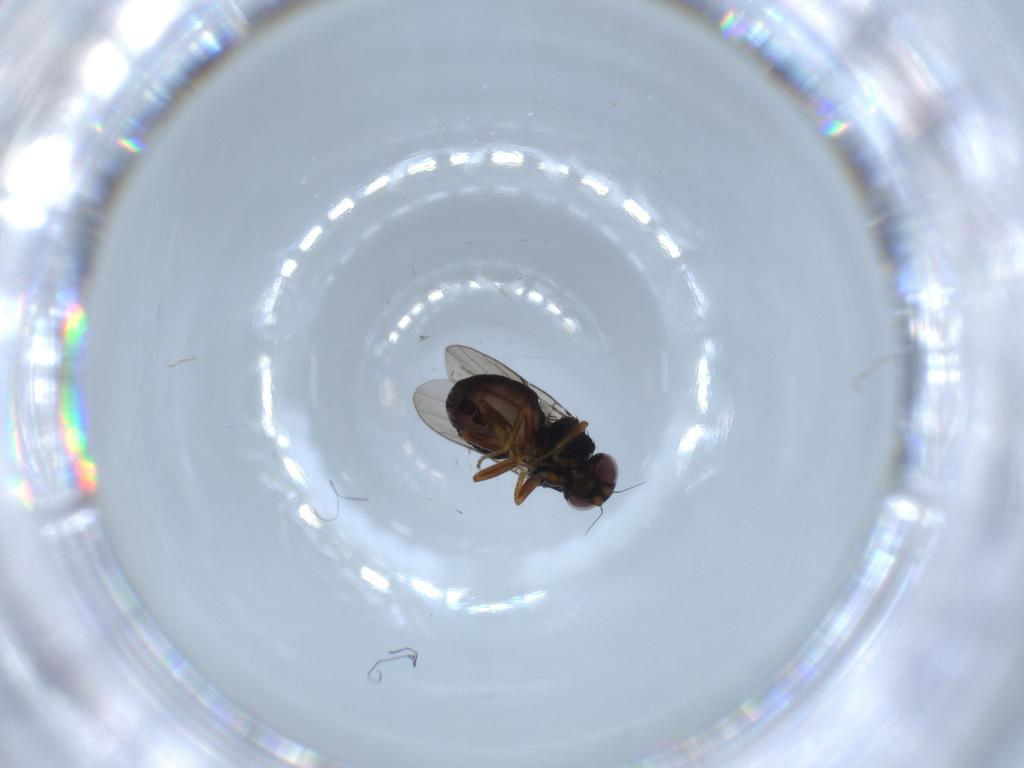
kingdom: Animalia
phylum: Arthropoda
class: Insecta
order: Diptera
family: Chloropidae
